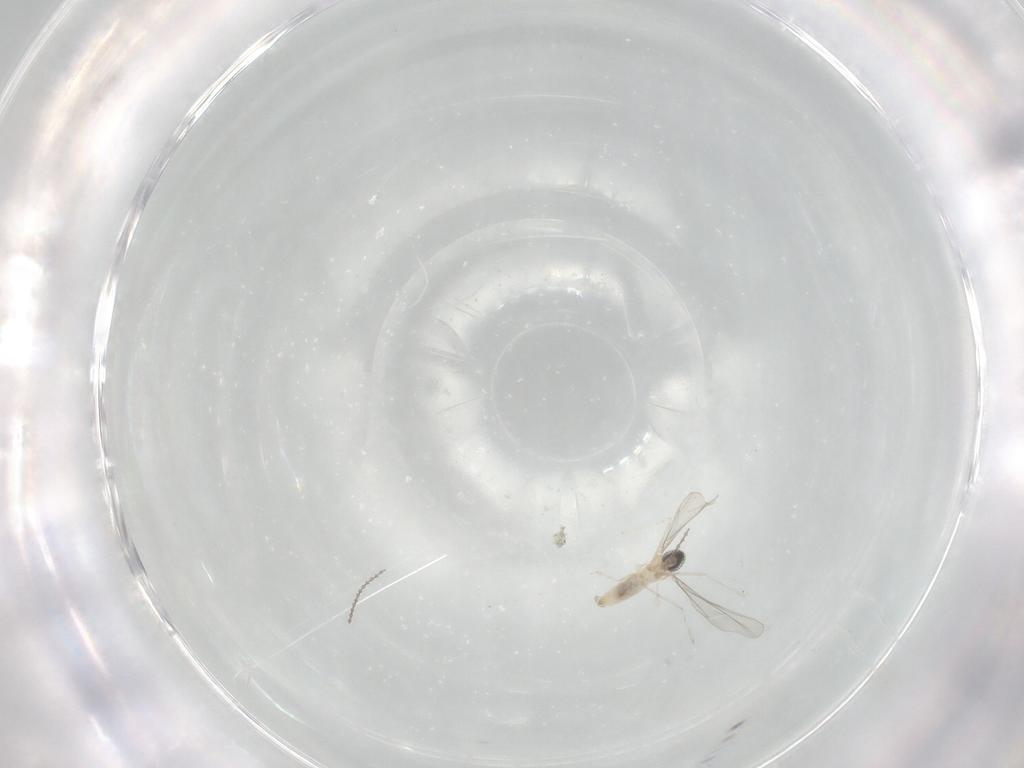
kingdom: Animalia
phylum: Arthropoda
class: Insecta
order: Diptera
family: Cecidomyiidae
